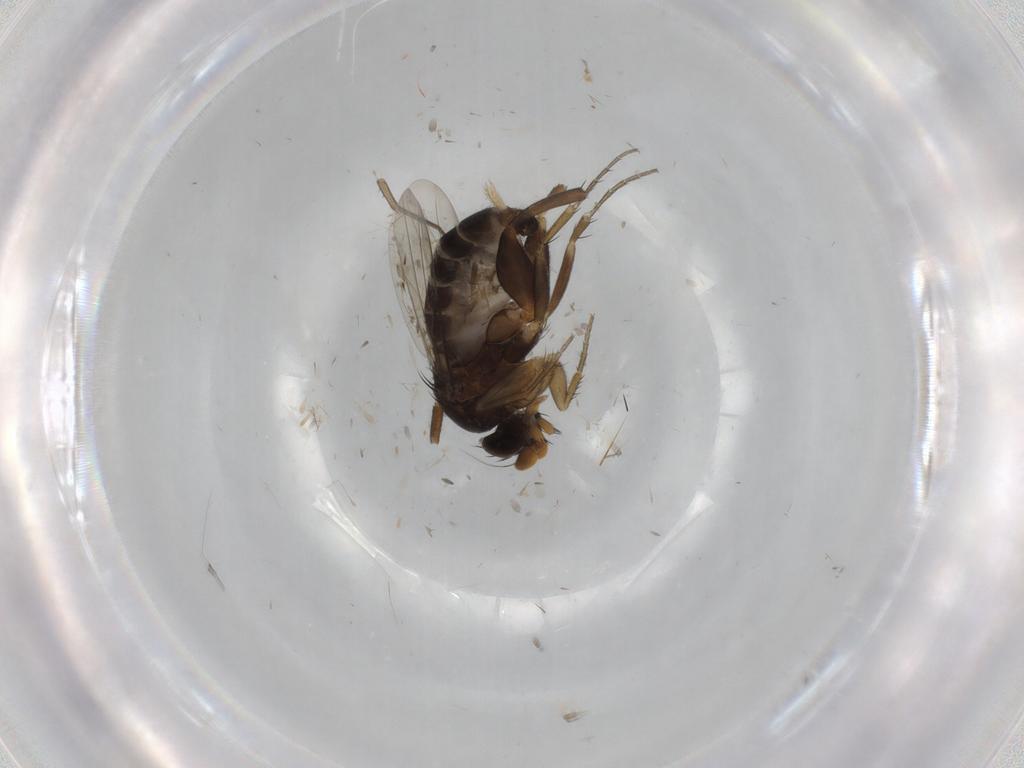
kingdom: Animalia
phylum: Arthropoda
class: Insecta
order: Diptera
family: Phoridae
